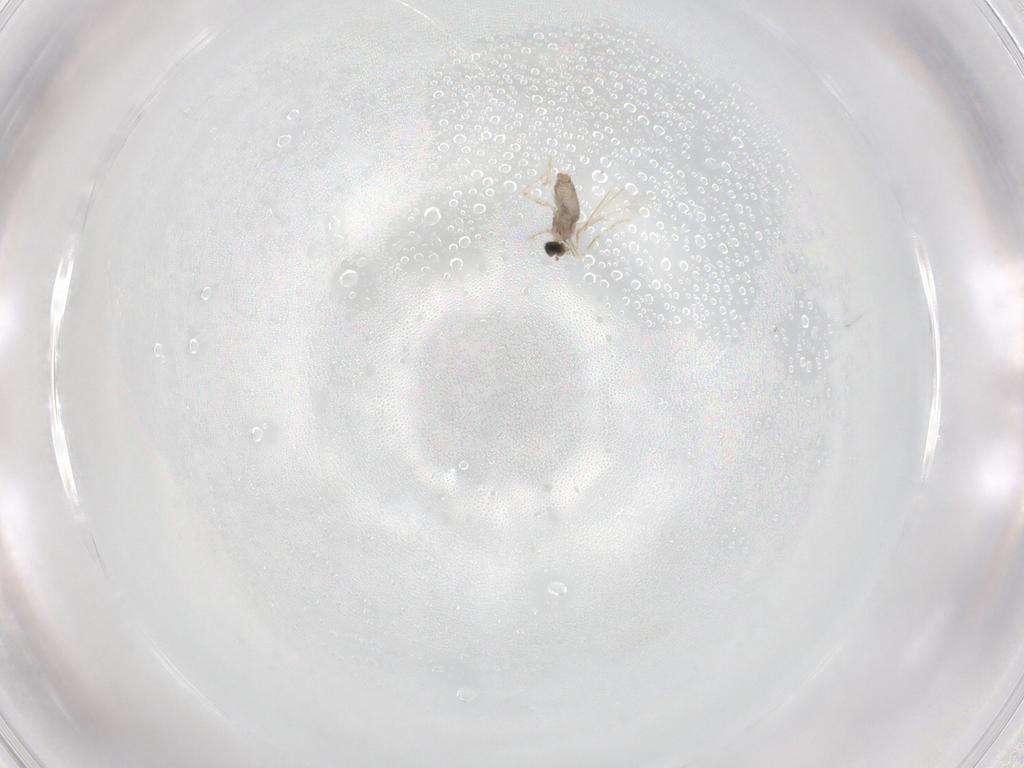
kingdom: Animalia
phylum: Arthropoda
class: Insecta
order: Diptera
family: Cecidomyiidae
